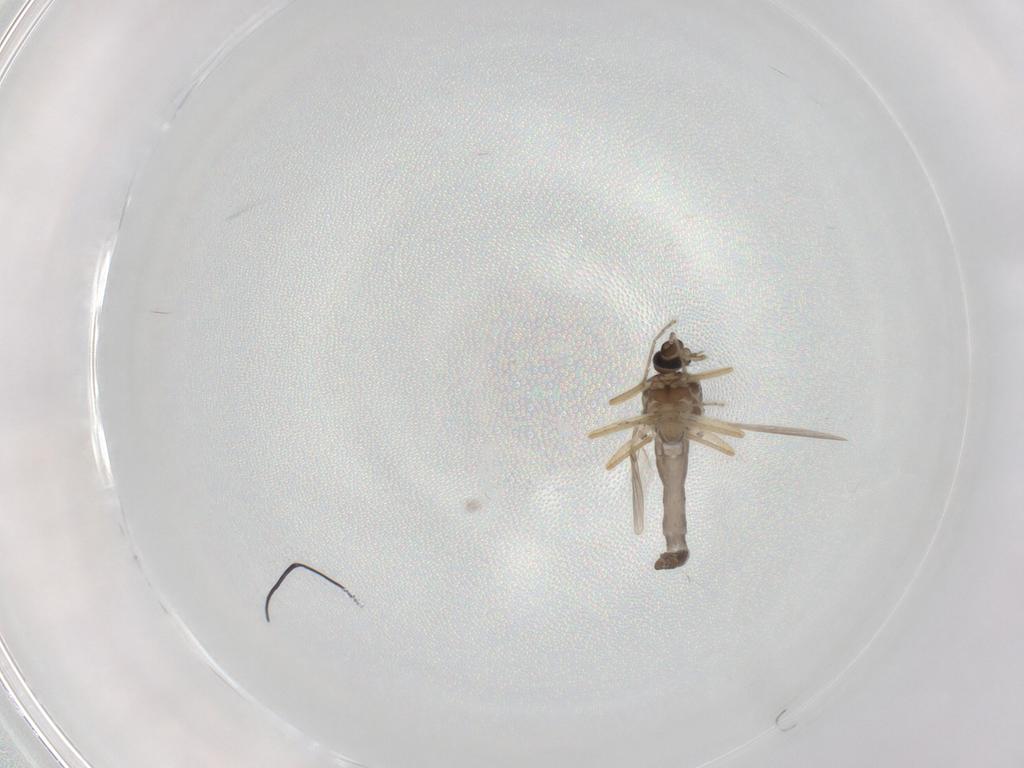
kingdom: Animalia
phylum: Arthropoda
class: Insecta
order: Diptera
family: Ceratopogonidae
